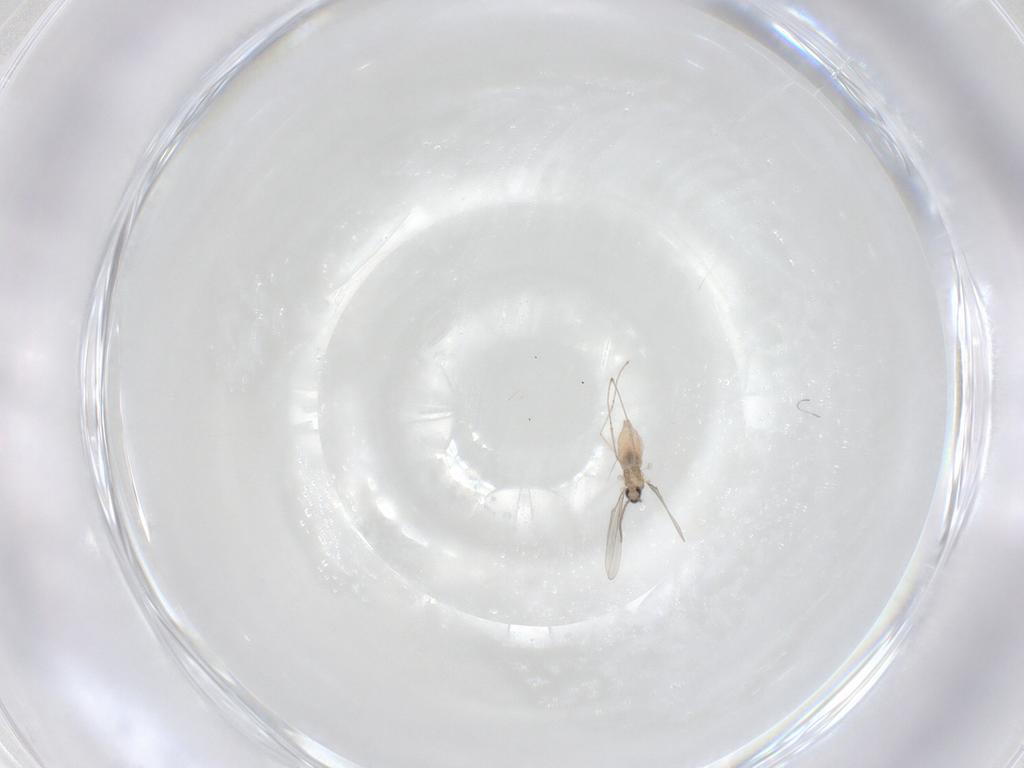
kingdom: Animalia
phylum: Arthropoda
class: Insecta
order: Diptera
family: Cecidomyiidae
